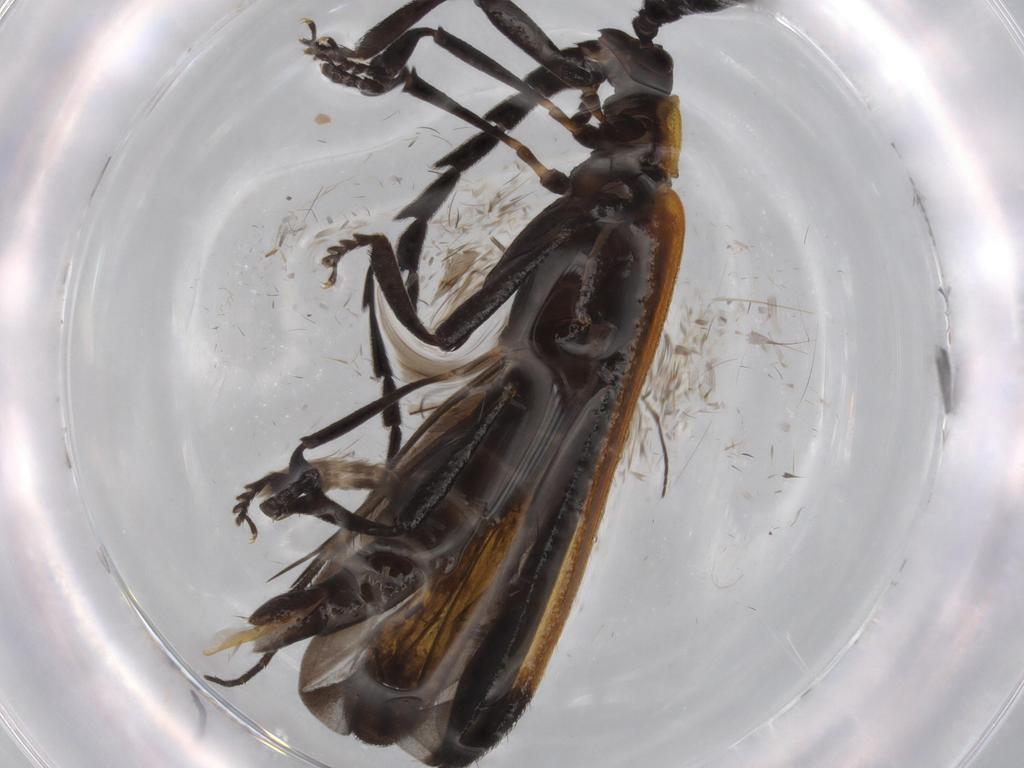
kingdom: Animalia
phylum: Arthropoda
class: Insecta
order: Coleoptera
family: Lycidae
